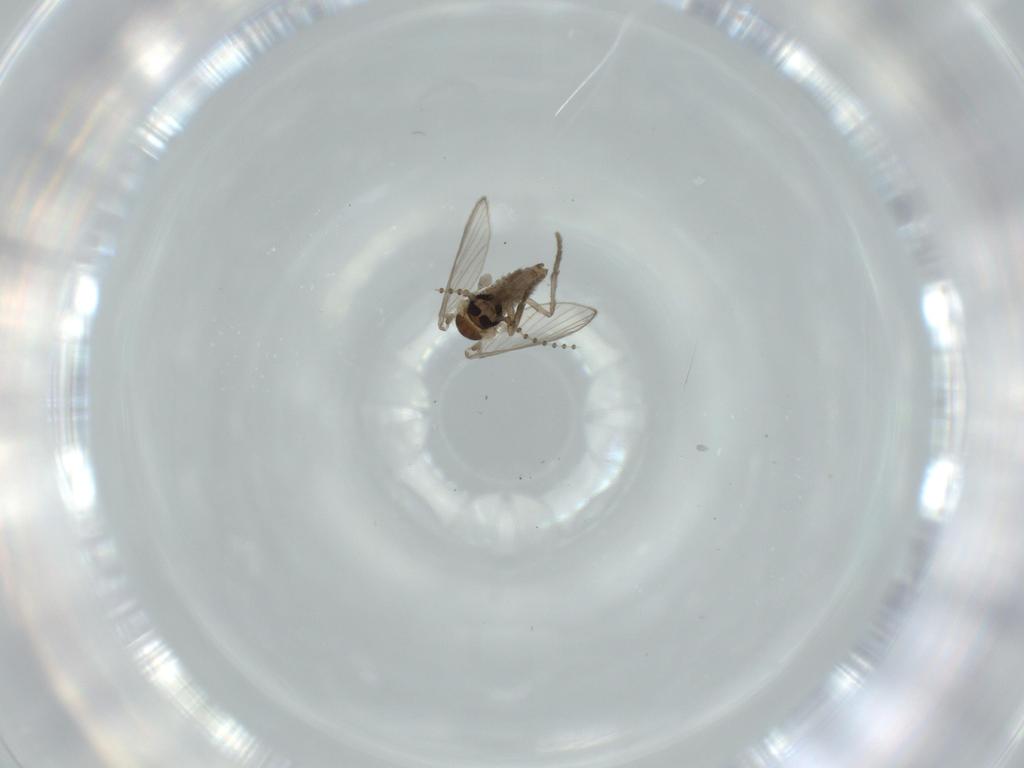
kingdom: Animalia
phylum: Arthropoda
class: Insecta
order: Diptera
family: Psychodidae
